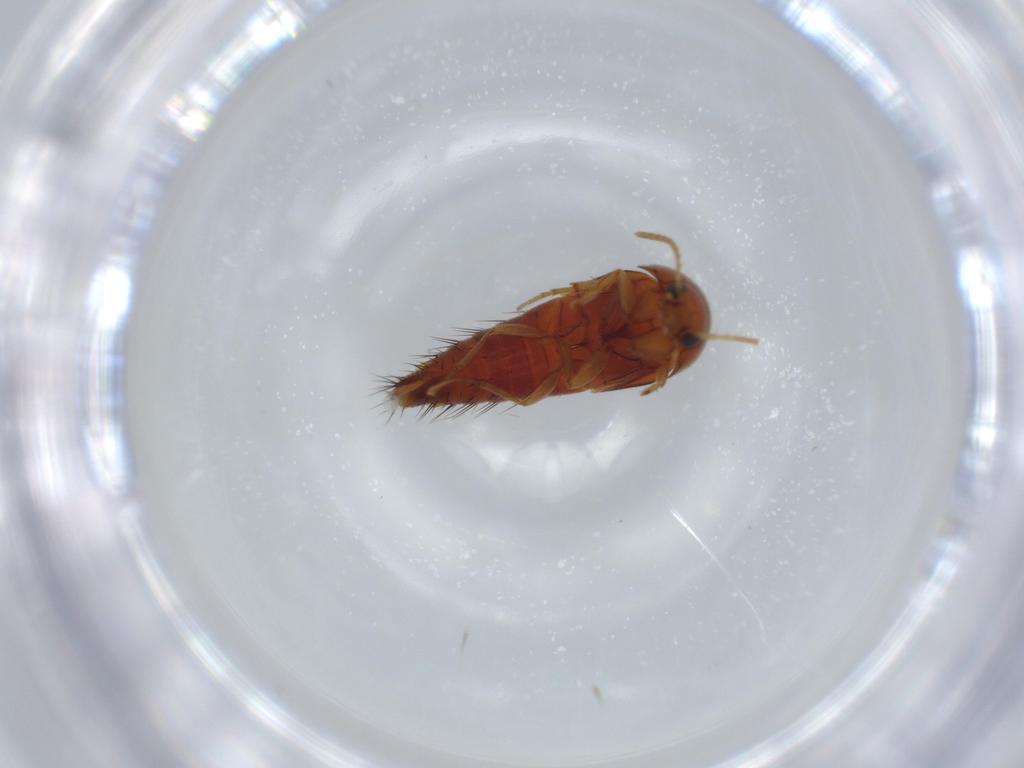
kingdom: Animalia
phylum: Arthropoda
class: Insecta
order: Coleoptera
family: Staphylinidae
